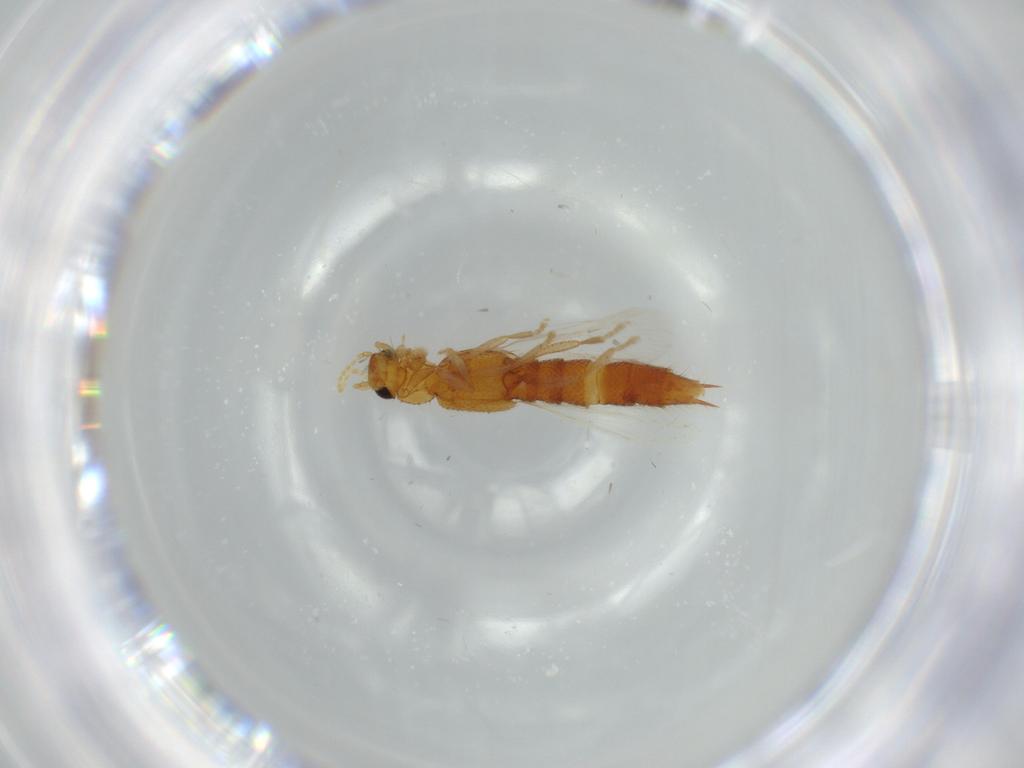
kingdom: Animalia
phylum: Arthropoda
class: Insecta
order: Coleoptera
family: Staphylinidae
